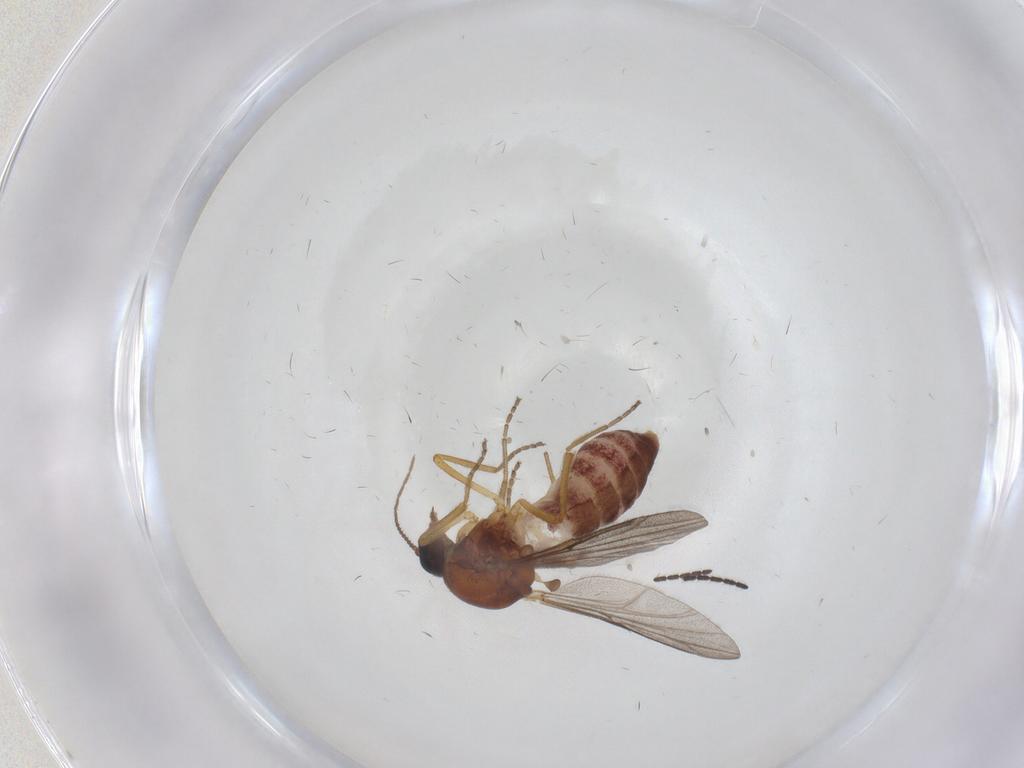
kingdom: Animalia
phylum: Arthropoda
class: Insecta
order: Diptera
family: Ceratopogonidae
